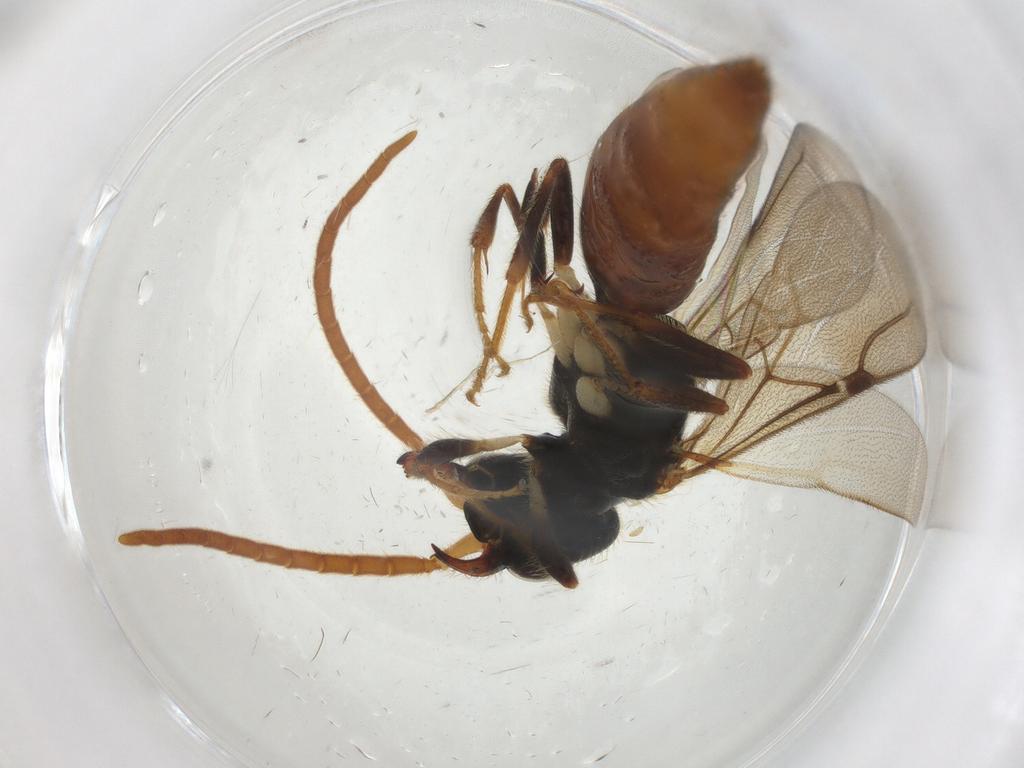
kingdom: Animalia
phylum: Arthropoda
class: Insecta
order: Hymenoptera
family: Megachilidae
